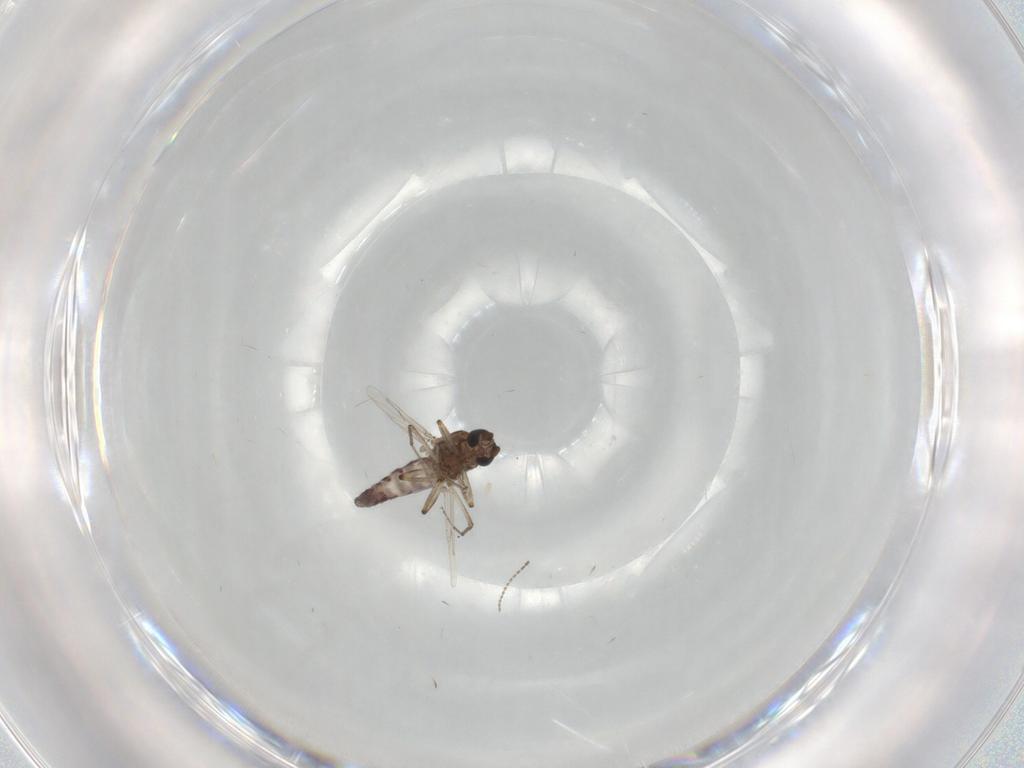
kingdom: Animalia
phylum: Arthropoda
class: Insecta
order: Diptera
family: Ceratopogonidae
